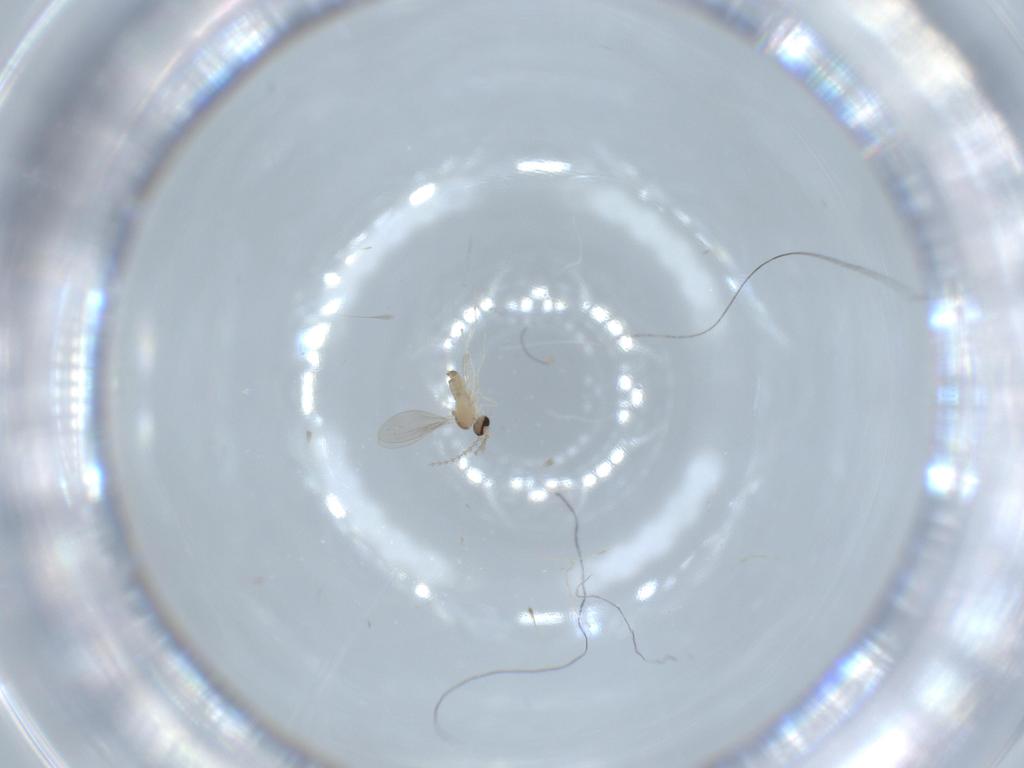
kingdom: Animalia
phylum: Arthropoda
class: Insecta
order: Diptera
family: Cecidomyiidae
